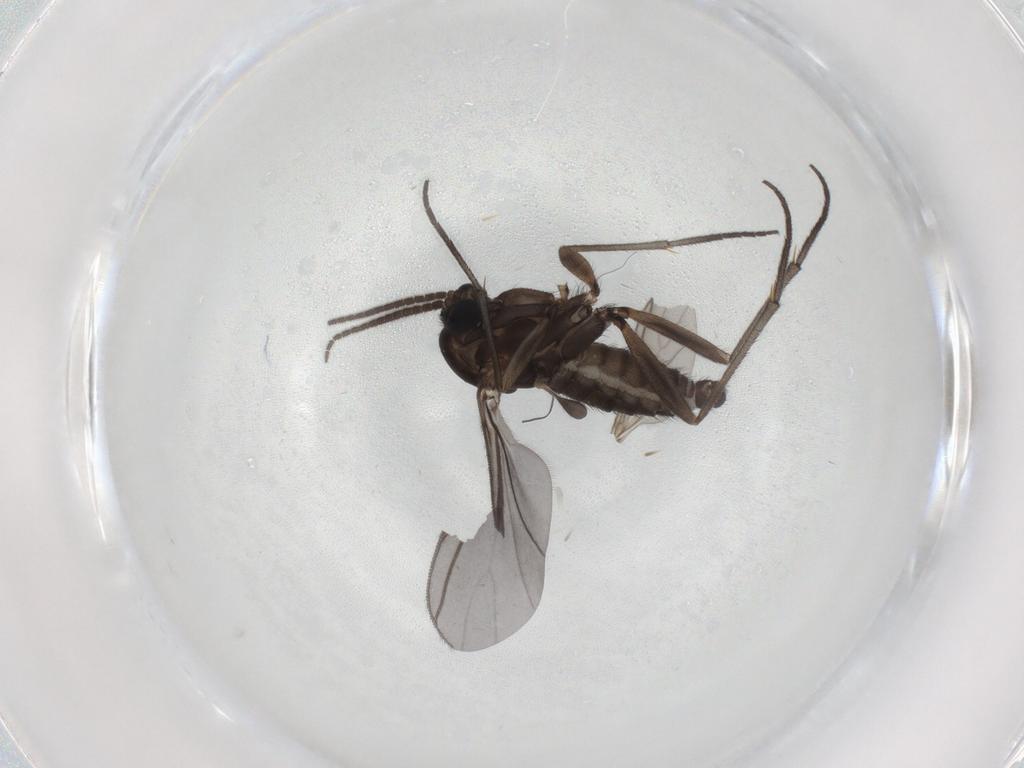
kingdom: Animalia
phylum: Arthropoda
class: Insecta
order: Diptera
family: Sciaridae
